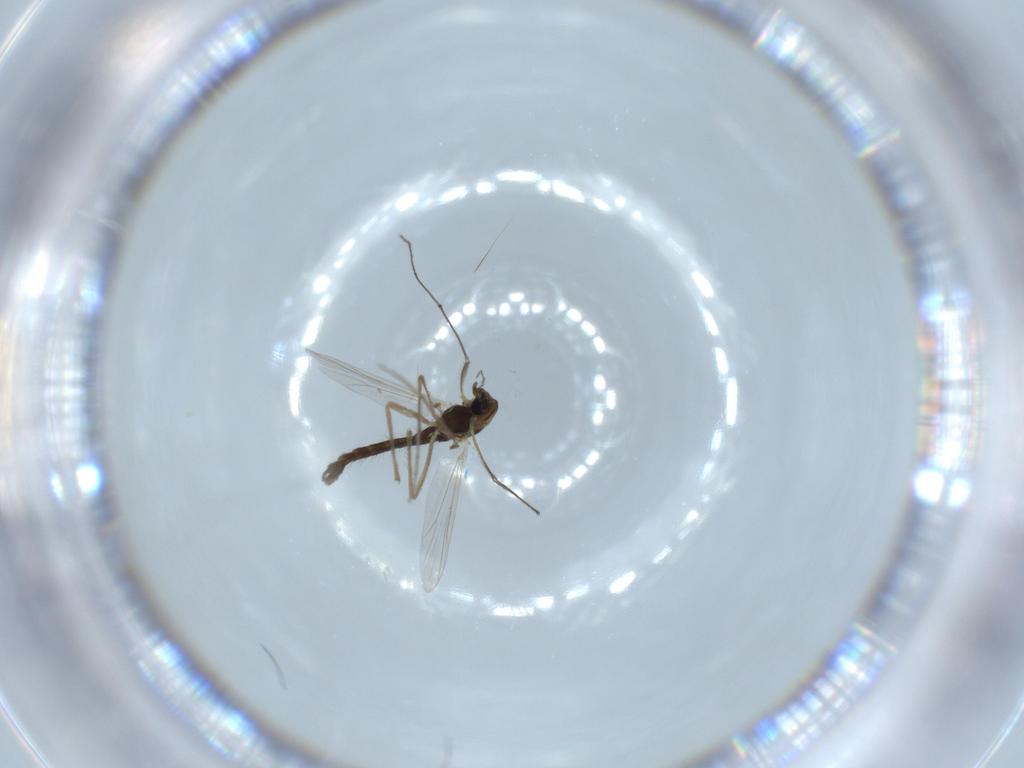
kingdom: Animalia
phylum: Arthropoda
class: Insecta
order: Diptera
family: Chironomidae
